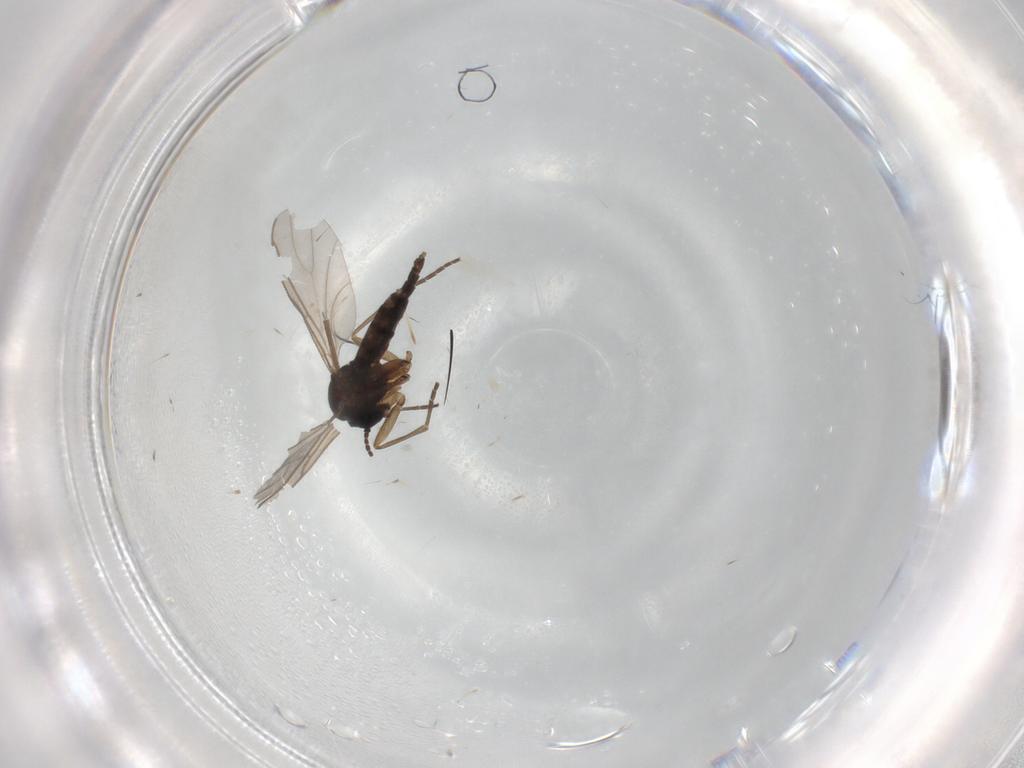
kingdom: Animalia
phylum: Arthropoda
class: Insecta
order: Diptera
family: Sciaridae
